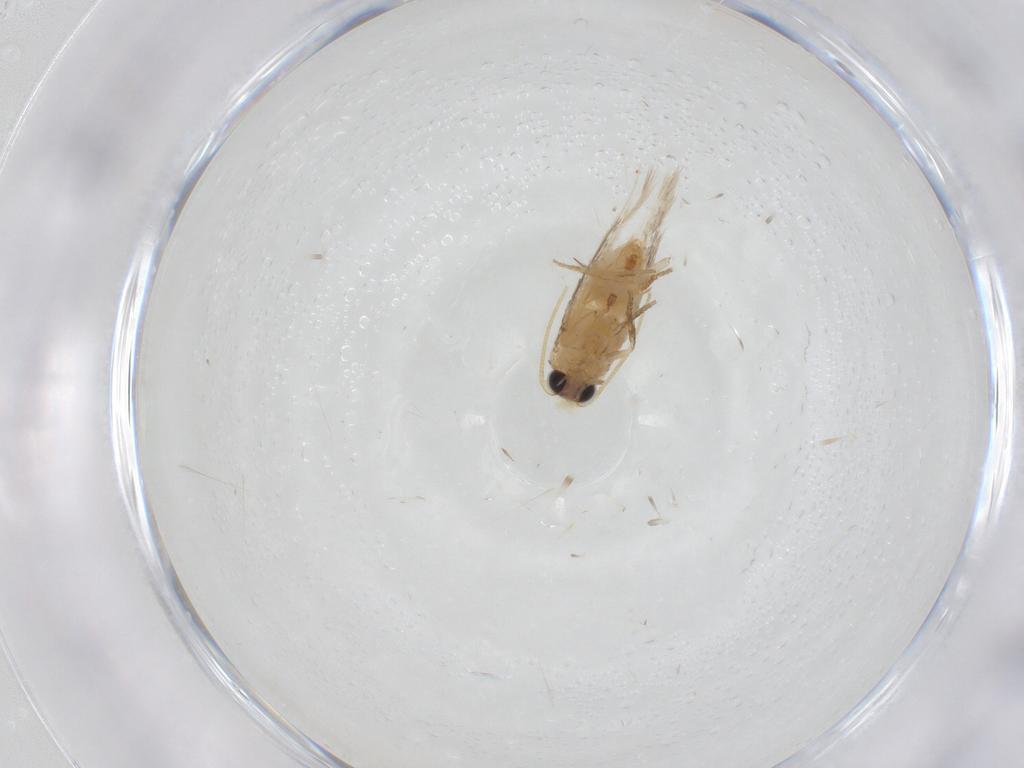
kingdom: Animalia
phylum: Arthropoda
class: Insecta
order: Lepidoptera
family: Nepticulidae
